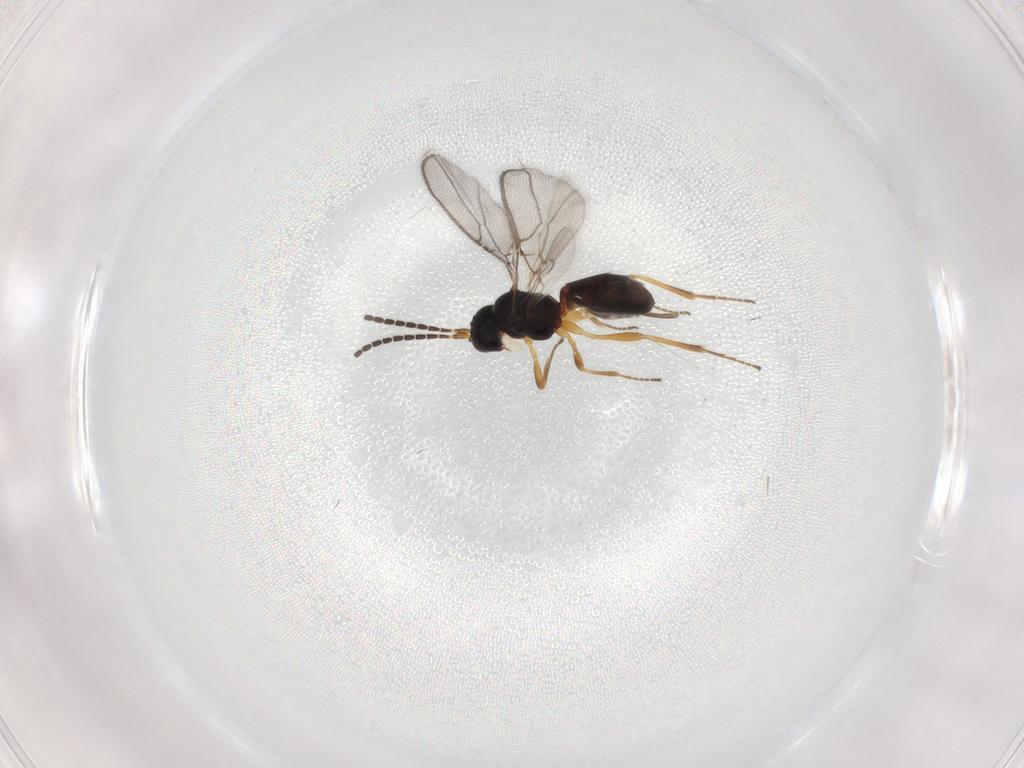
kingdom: Animalia
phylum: Arthropoda
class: Insecta
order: Hymenoptera
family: Braconidae
